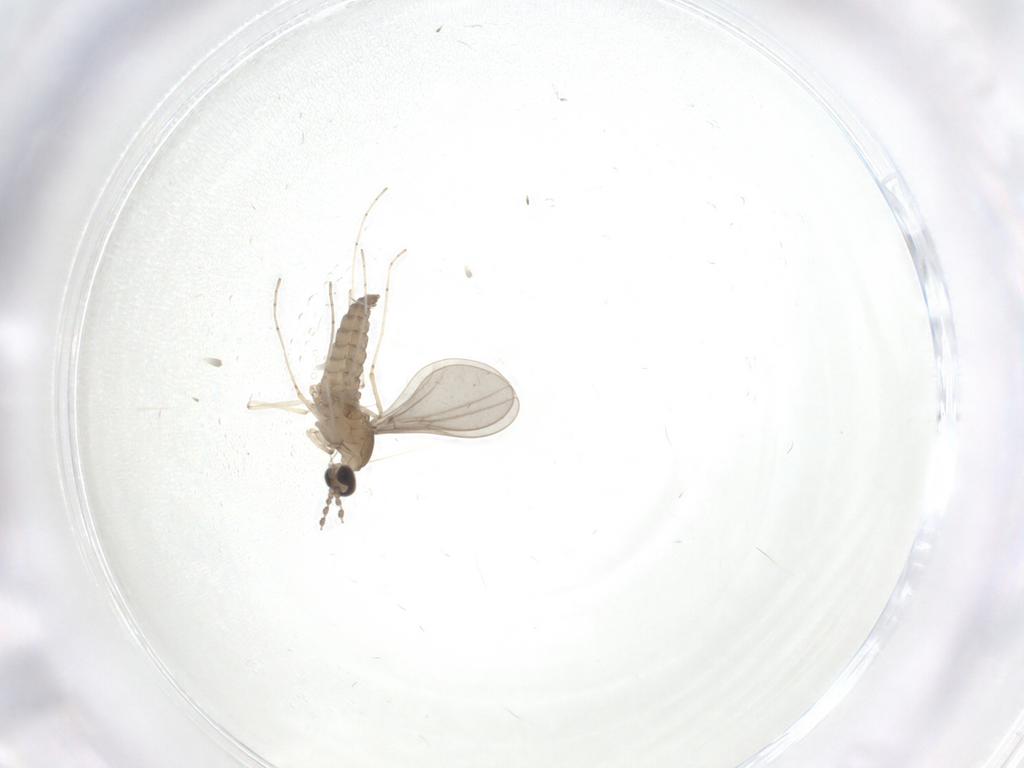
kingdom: Animalia
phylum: Arthropoda
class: Insecta
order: Diptera
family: Cecidomyiidae
